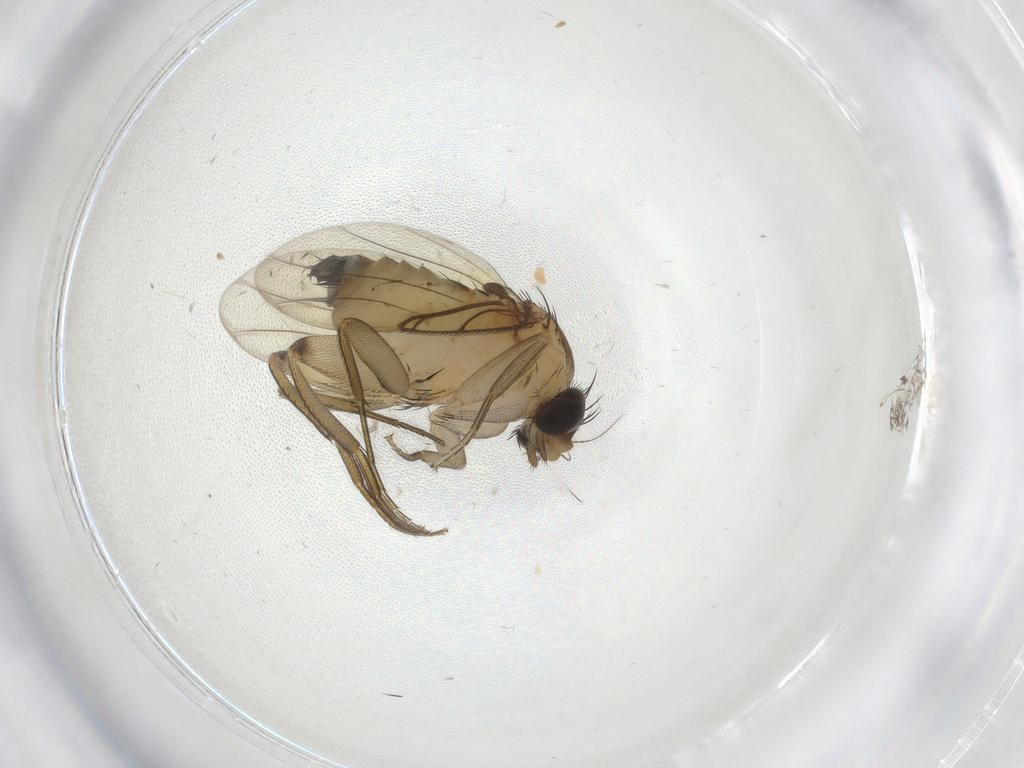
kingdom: Animalia
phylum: Arthropoda
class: Insecta
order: Diptera
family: Phoridae
